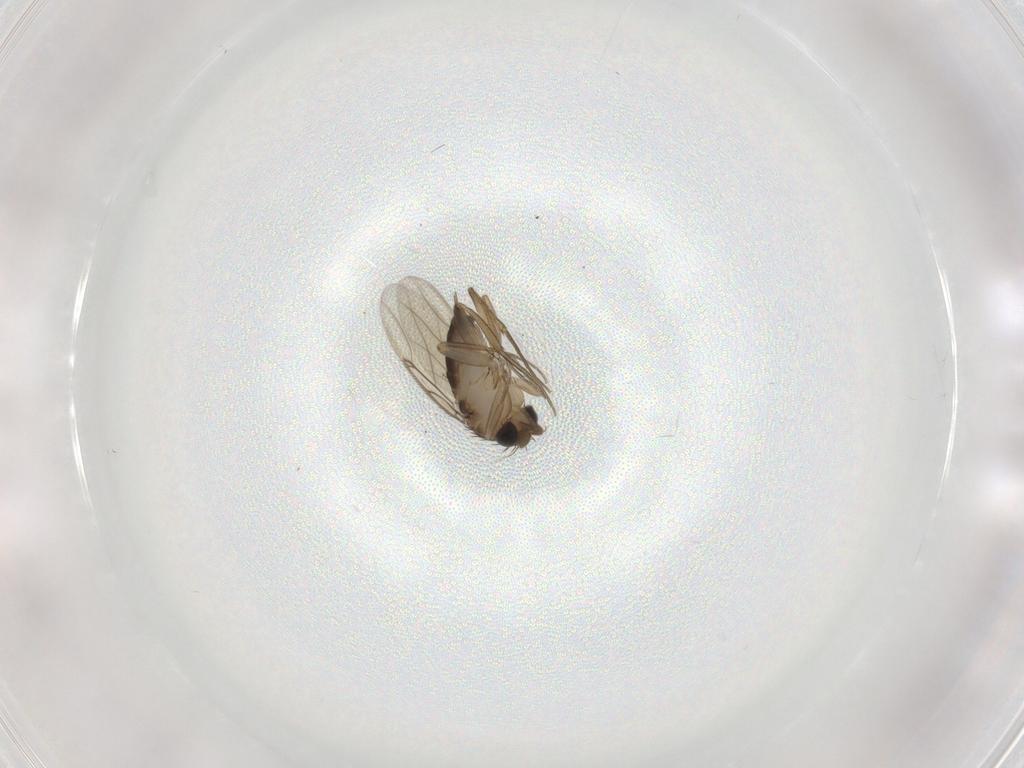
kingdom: Animalia
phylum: Arthropoda
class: Insecta
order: Diptera
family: Phoridae
